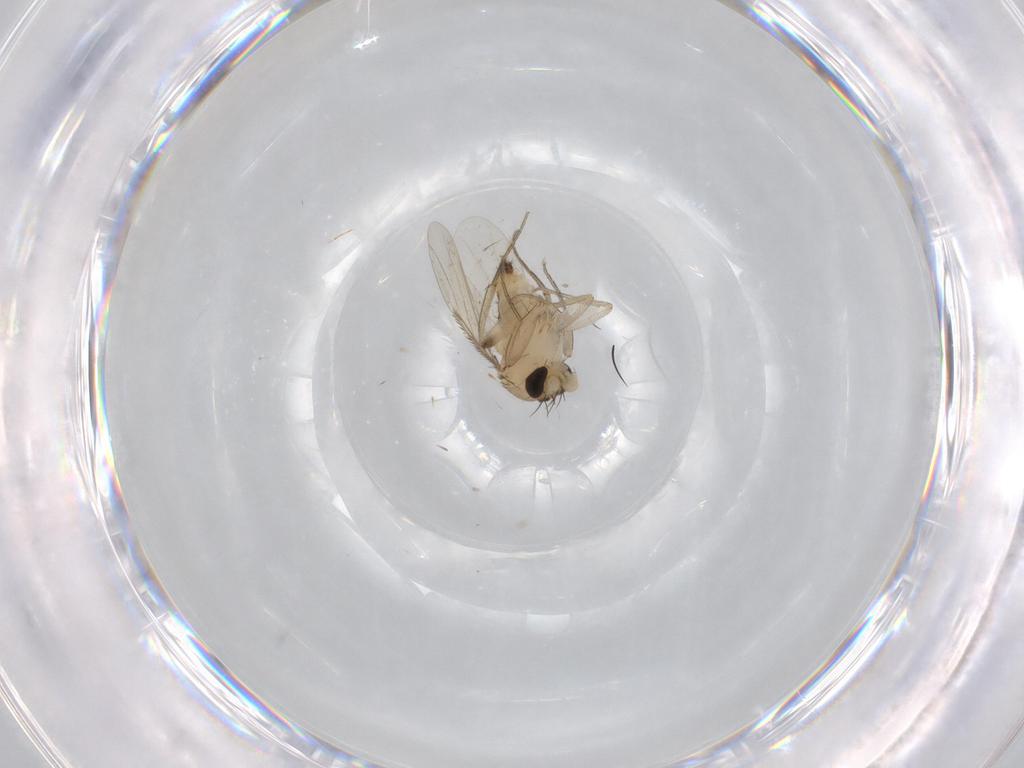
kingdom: Animalia
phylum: Arthropoda
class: Insecta
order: Diptera
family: Phoridae
